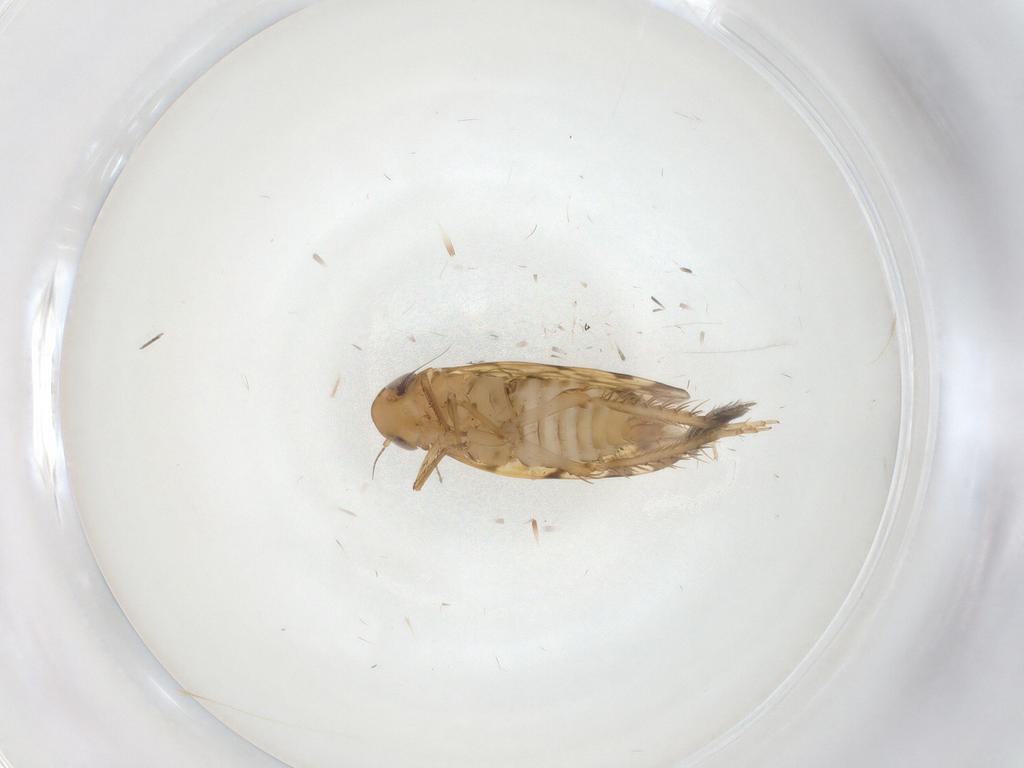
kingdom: Animalia
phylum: Arthropoda
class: Insecta
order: Hemiptera
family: Cicadellidae
